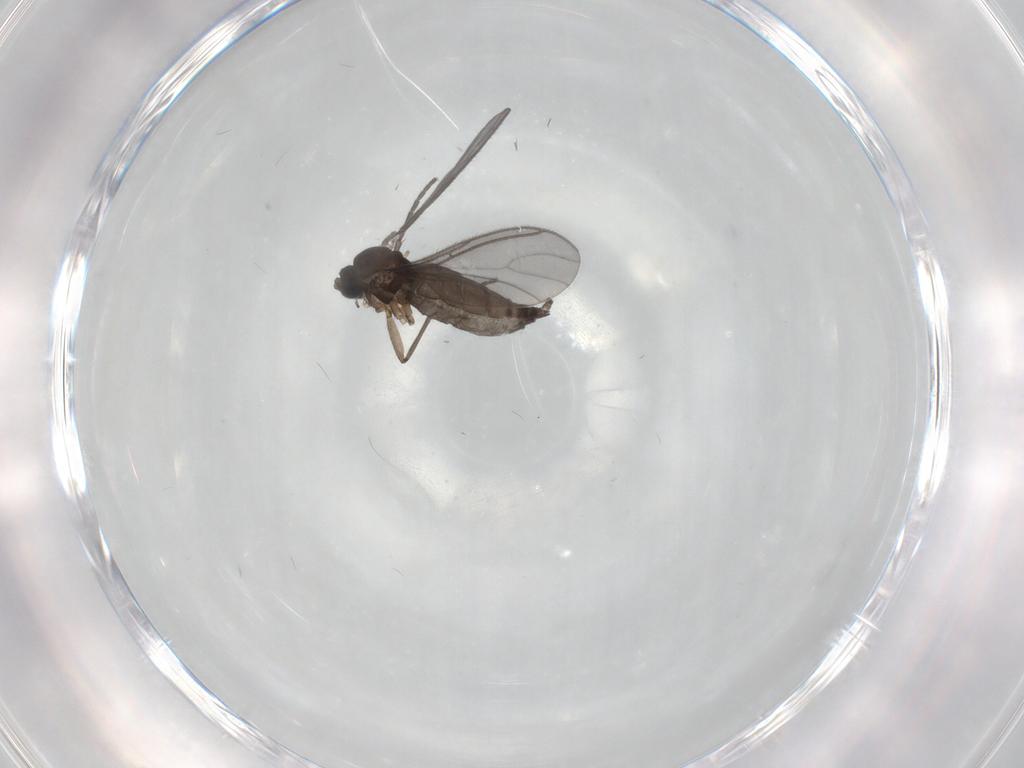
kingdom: Animalia
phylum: Arthropoda
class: Insecta
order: Diptera
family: Sciaridae
